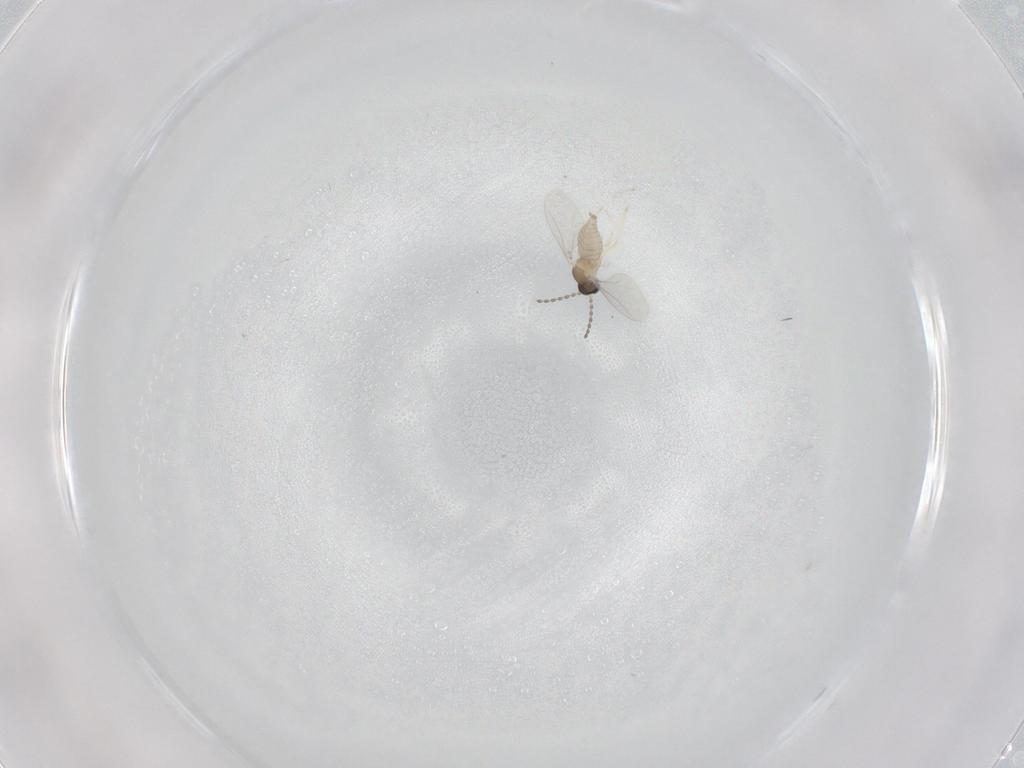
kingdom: Animalia
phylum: Arthropoda
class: Insecta
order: Diptera
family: Cecidomyiidae
